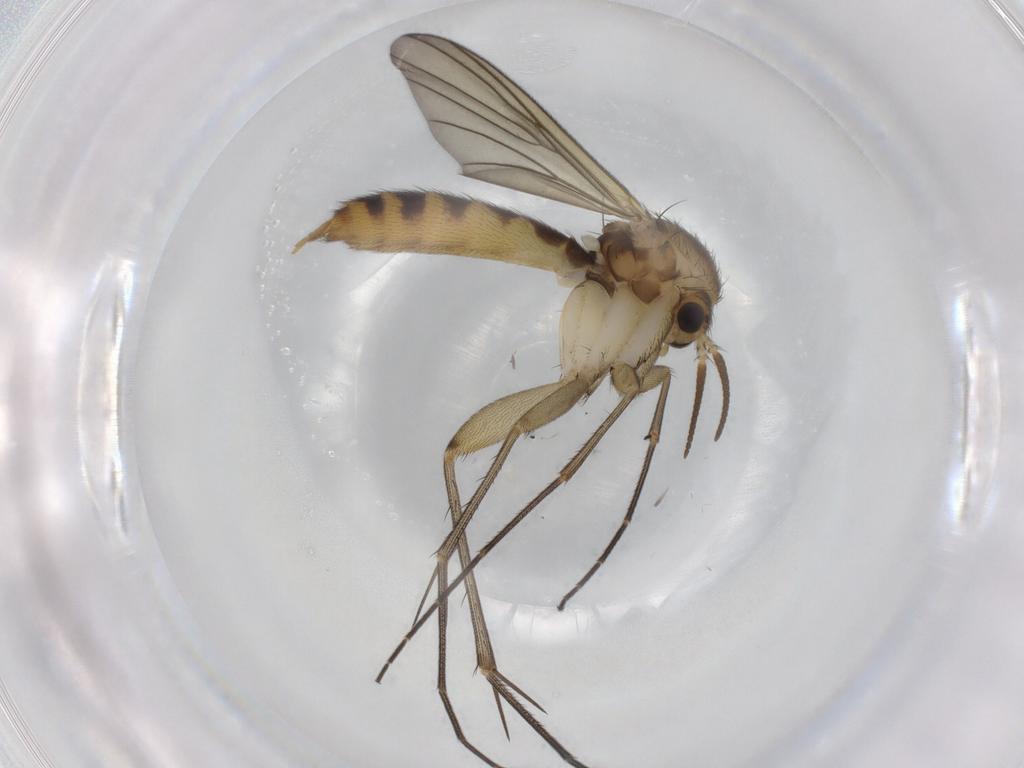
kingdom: Animalia
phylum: Arthropoda
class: Insecta
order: Diptera
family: Mycetophilidae
